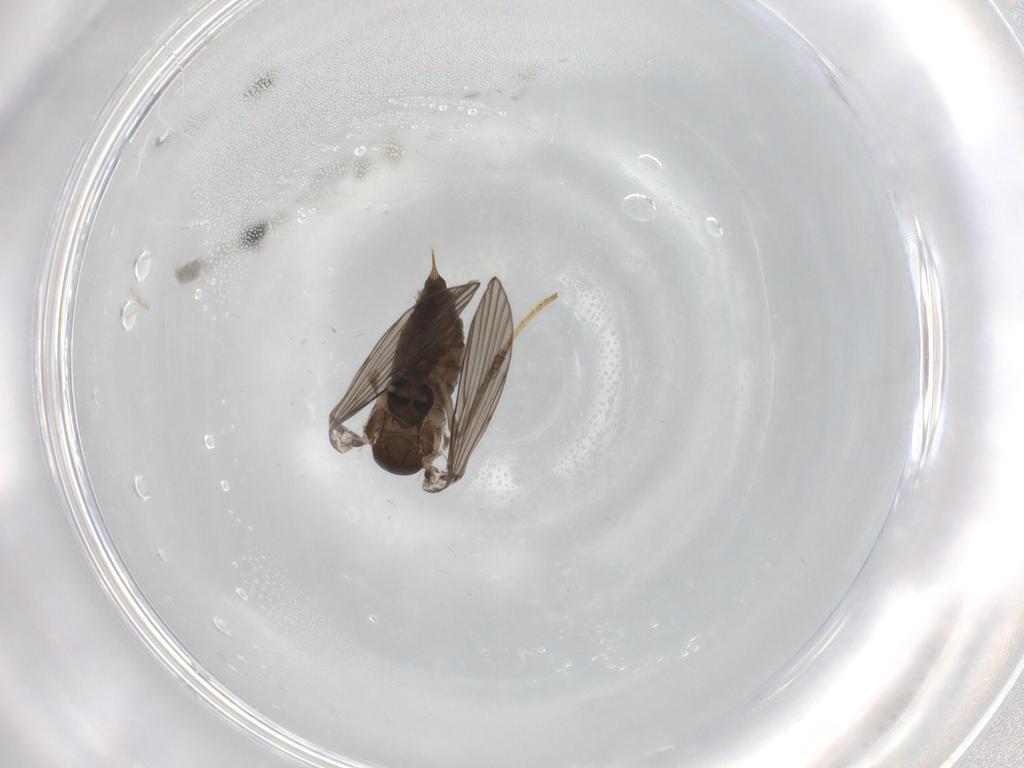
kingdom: Animalia
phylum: Arthropoda
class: Insecta
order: Diptera
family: Psychodidae
